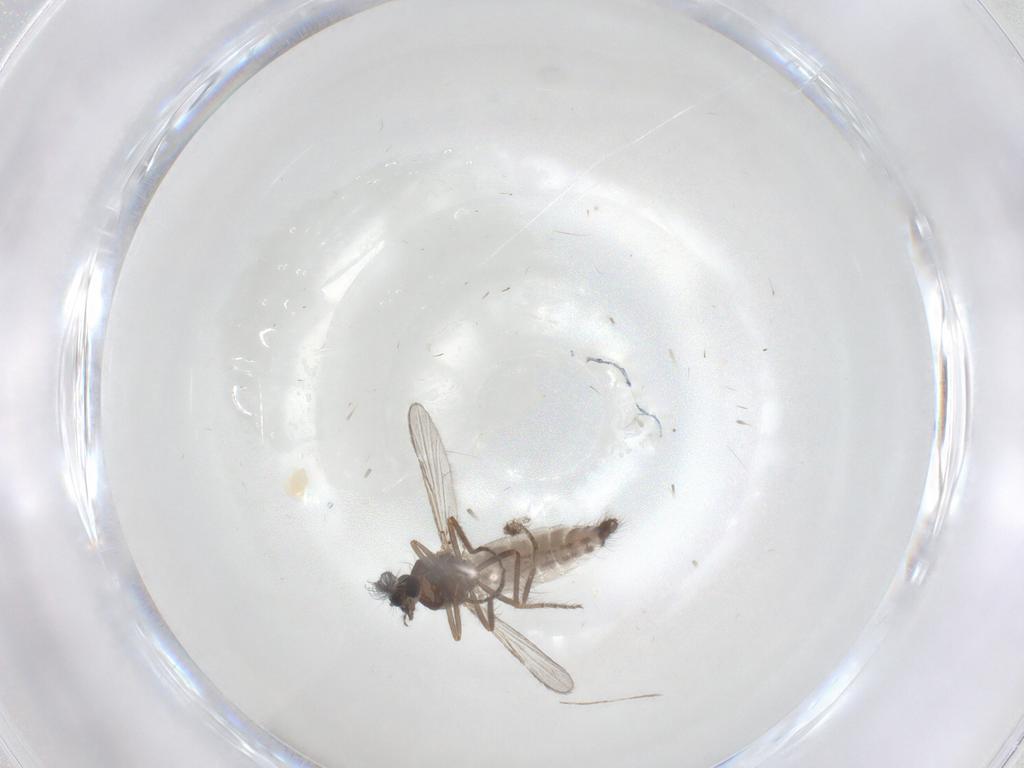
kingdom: Animalia
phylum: Arthropoda
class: Insecta
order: Diptera
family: Ceratopogonidae
